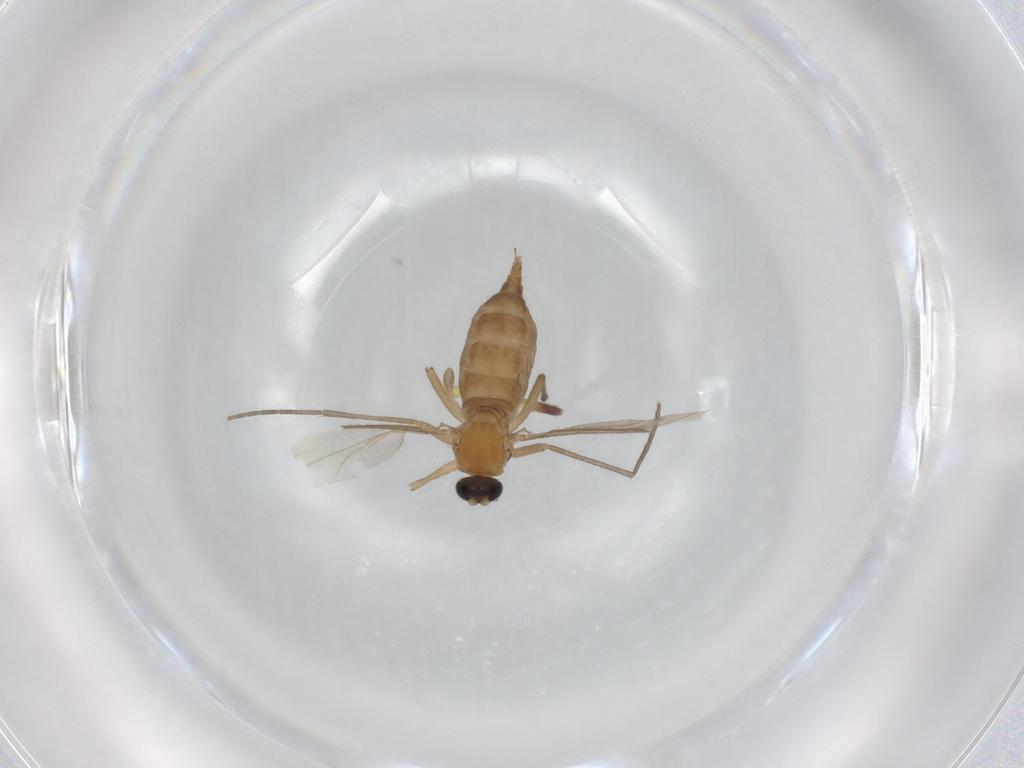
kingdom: Animalia
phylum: Arthropoda
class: Insecta
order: Diptera
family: Sciaridae
